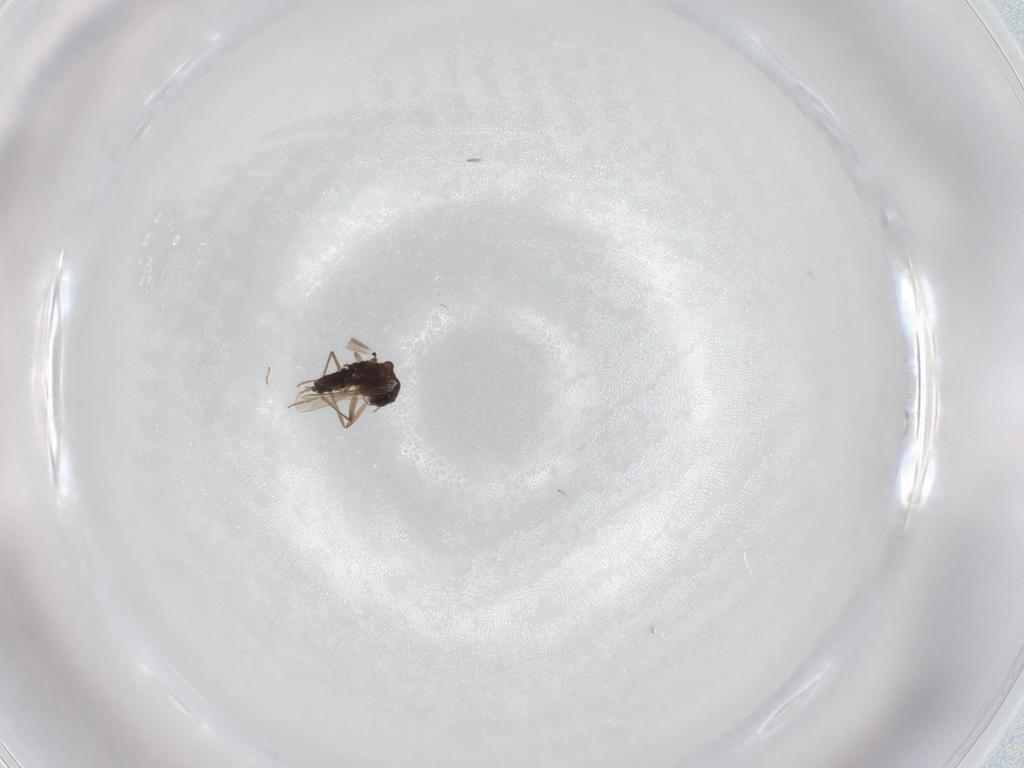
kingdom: Animalia
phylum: Arthropoda
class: Insecta
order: Diptera
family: Chironomidae
